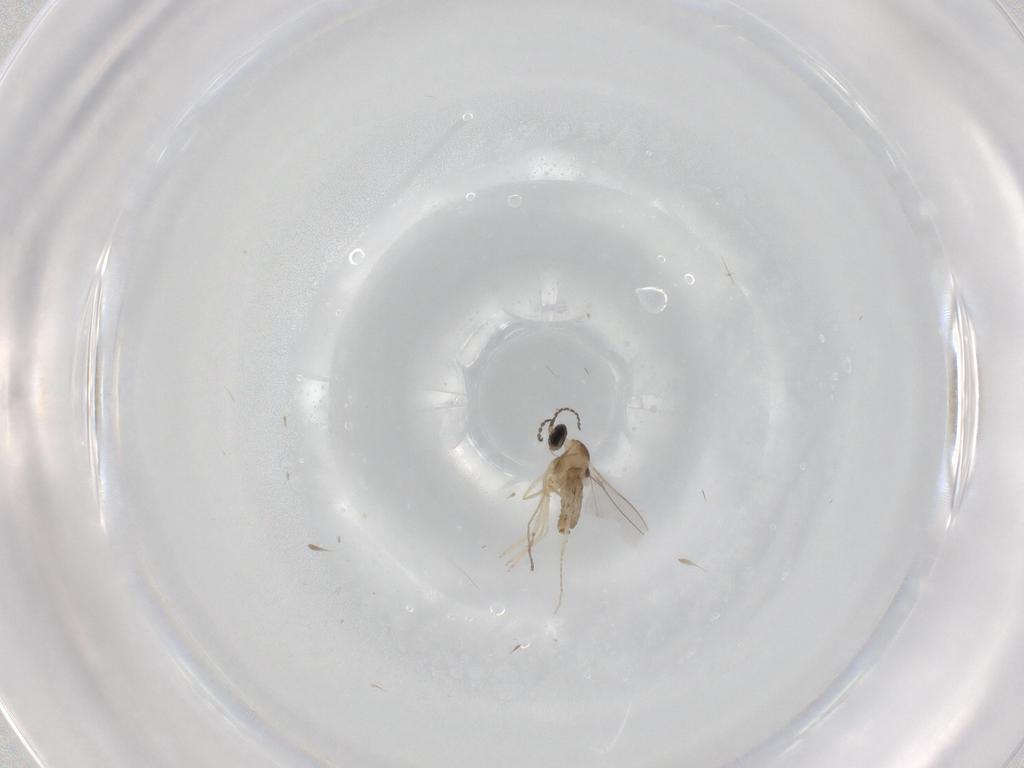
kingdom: Animalia
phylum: Arthropoda
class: Insecta
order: Diptera
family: Cecidomyiidae
